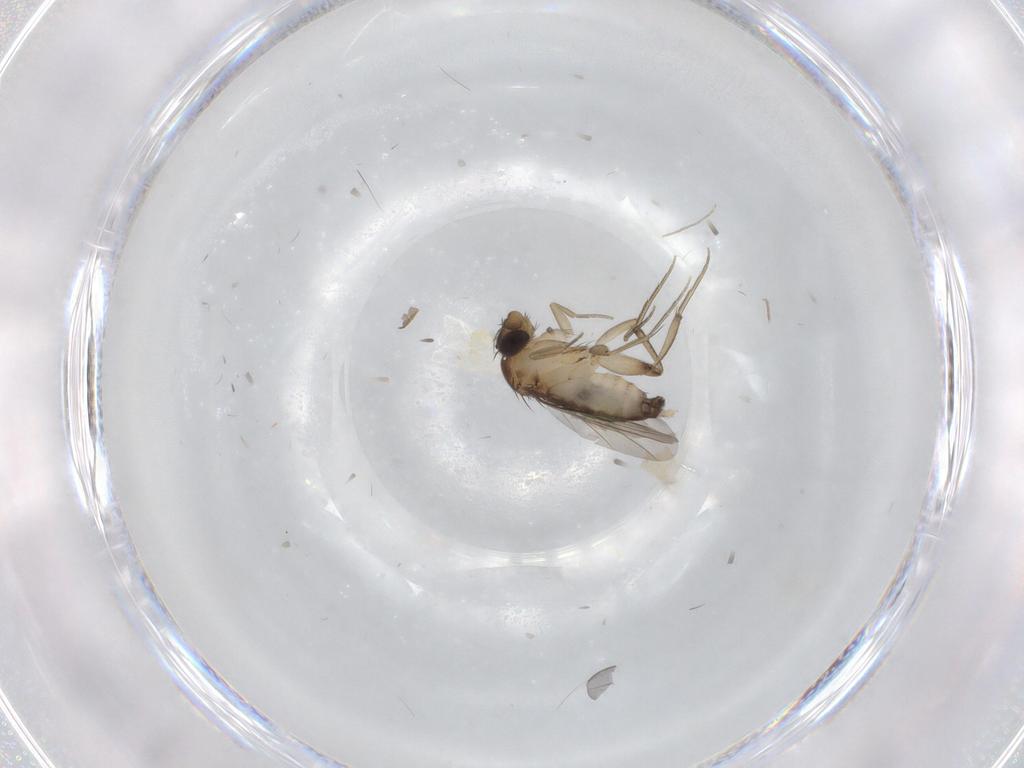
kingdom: Animalia
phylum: Arthropoda
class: Insecta
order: Diptera
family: Phoridae
